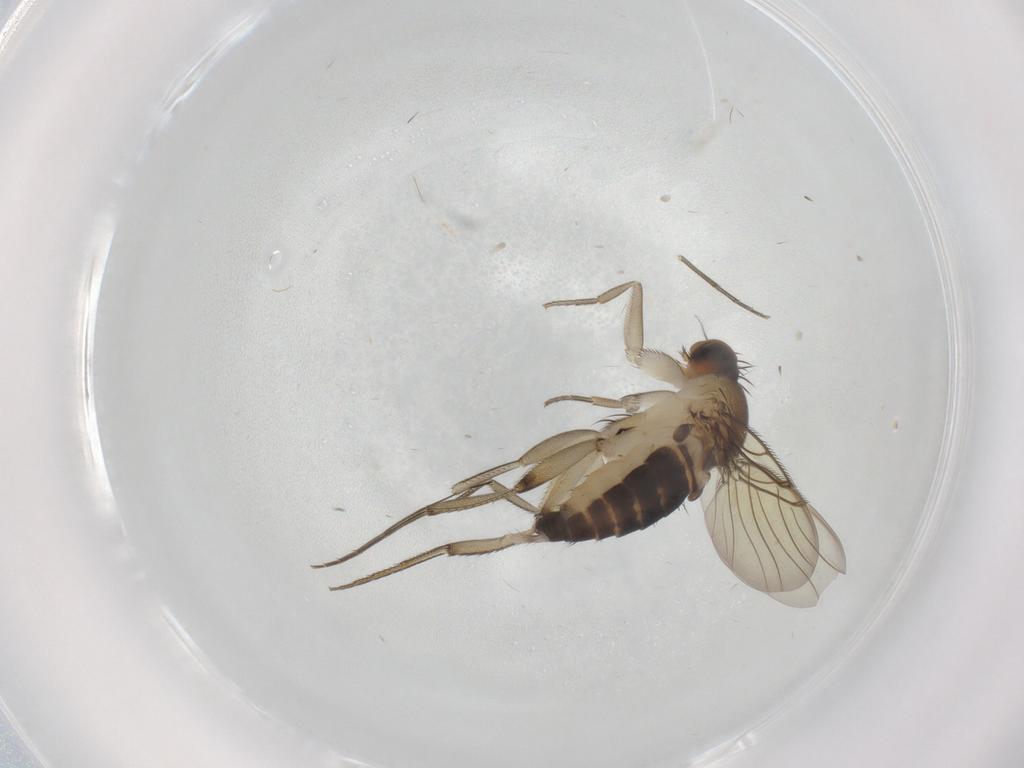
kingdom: Animalia
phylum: Arthropoda
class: Insecta
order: Diptera
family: Phoridae
